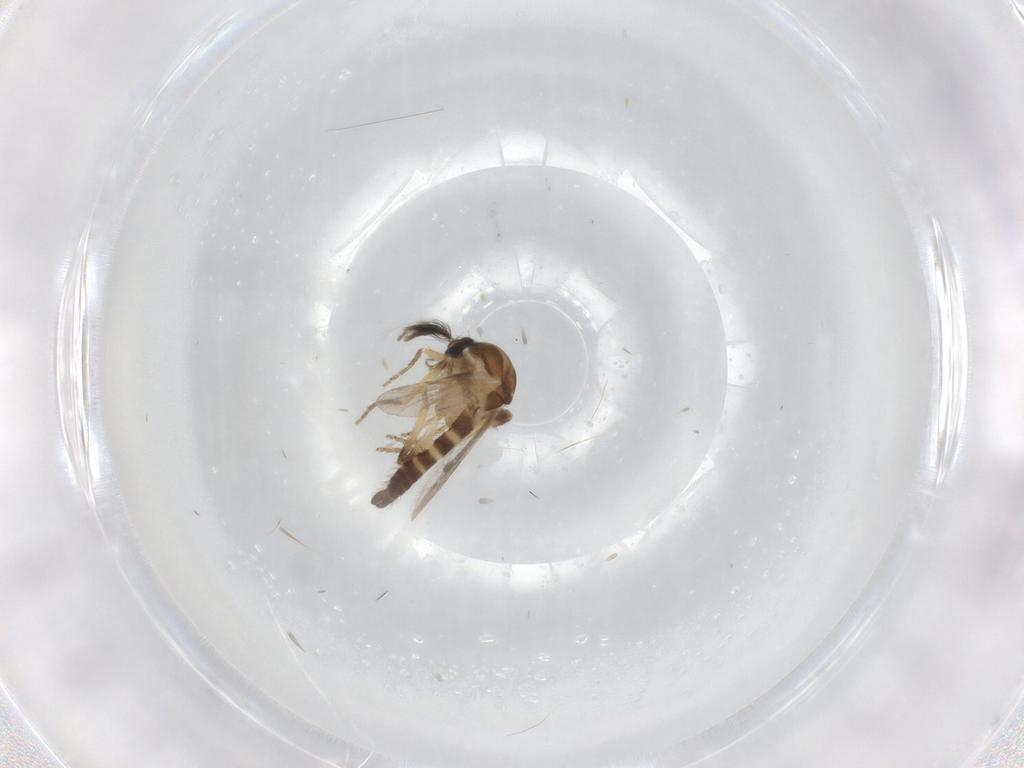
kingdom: Animalia
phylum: Arthropoda
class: Insecta
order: Diptera
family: Ceratopogonidae
